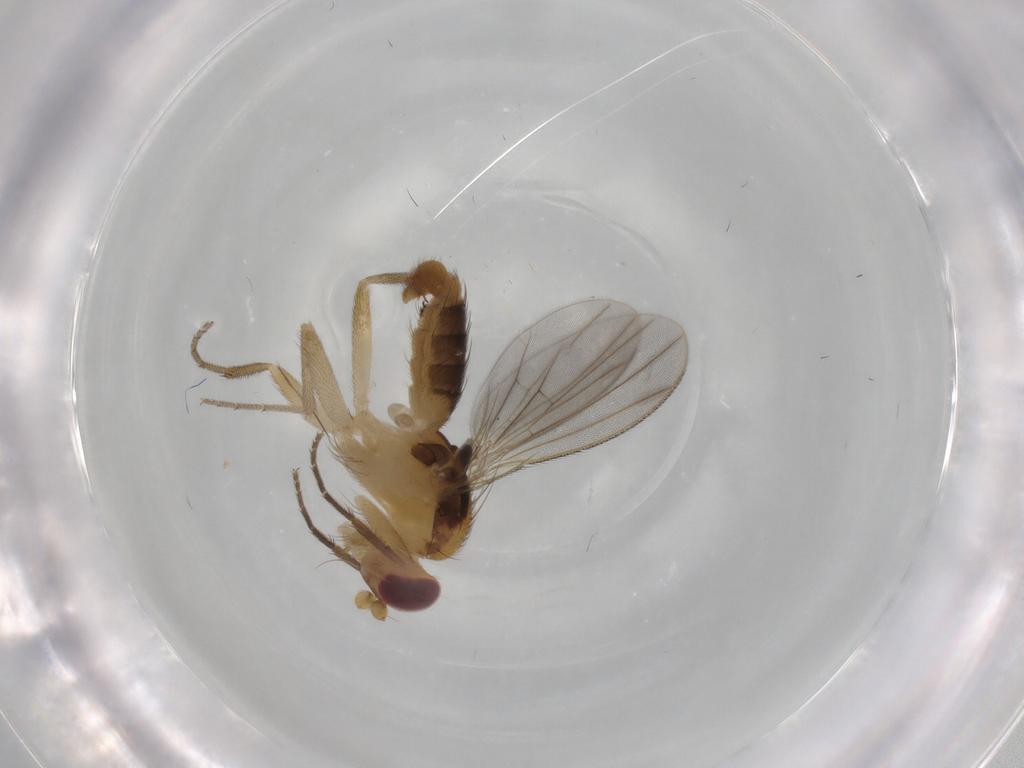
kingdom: Animalia
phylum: Arthropoda
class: Insecta
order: Diptera
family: Clusiidae
